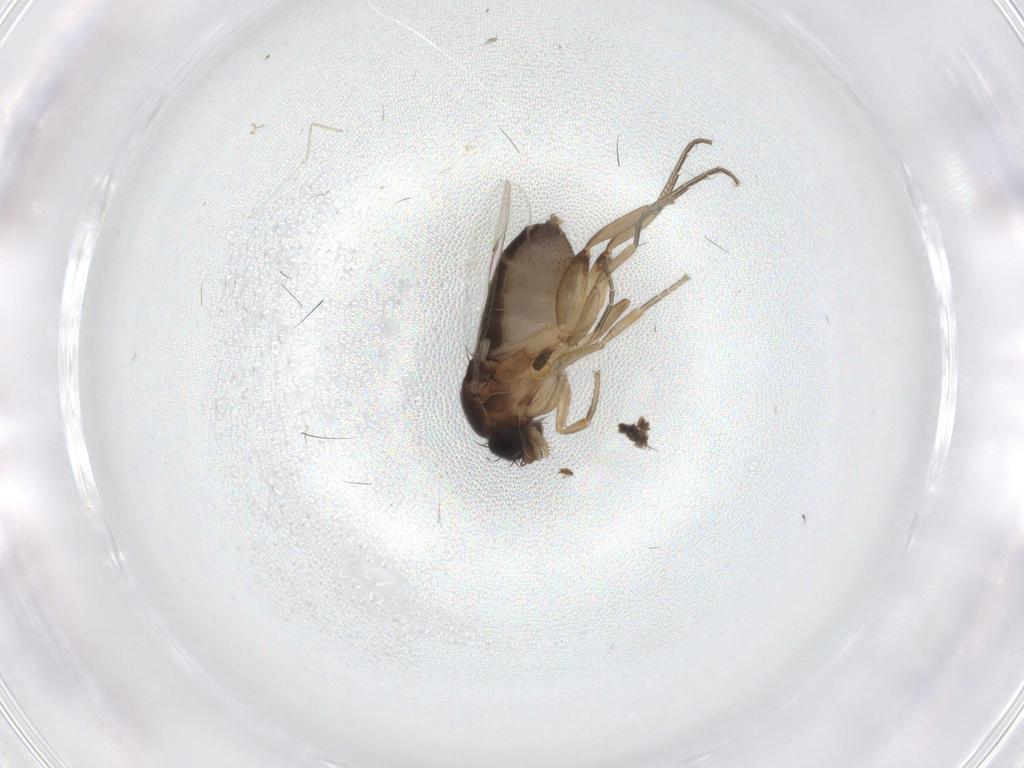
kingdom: Animalia
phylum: Arthropoda
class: Insecta
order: Diptera
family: Phoridae
